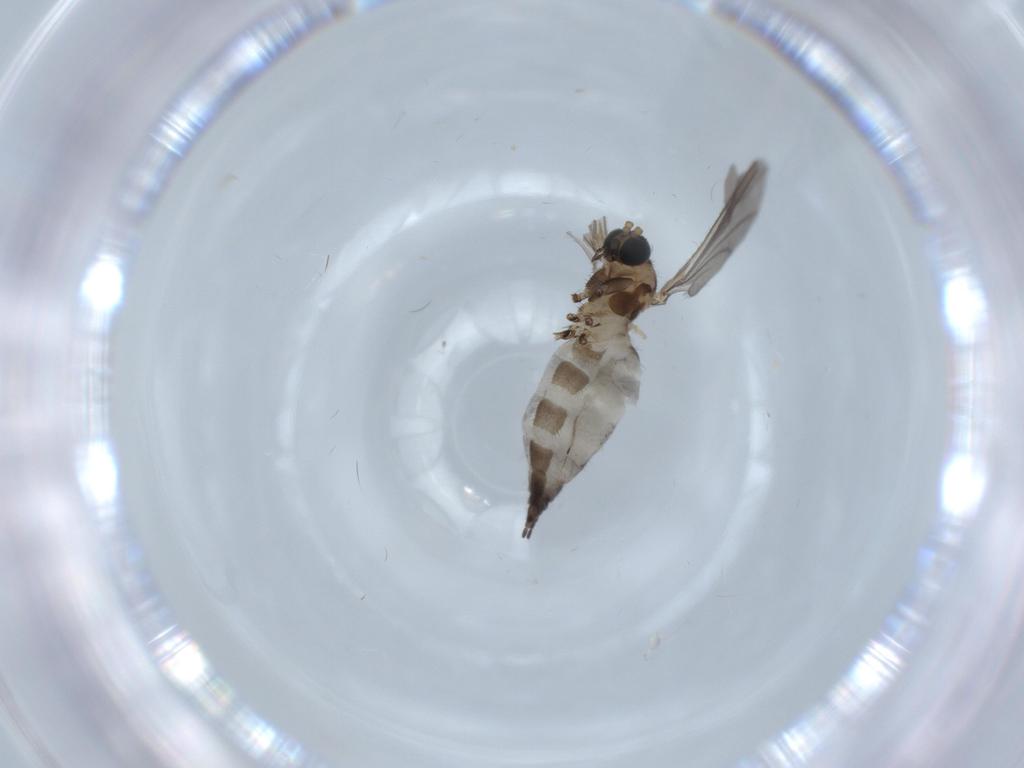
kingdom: Animalia
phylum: Arthropoda
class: Insecta
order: Diptera
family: Sciaridae
